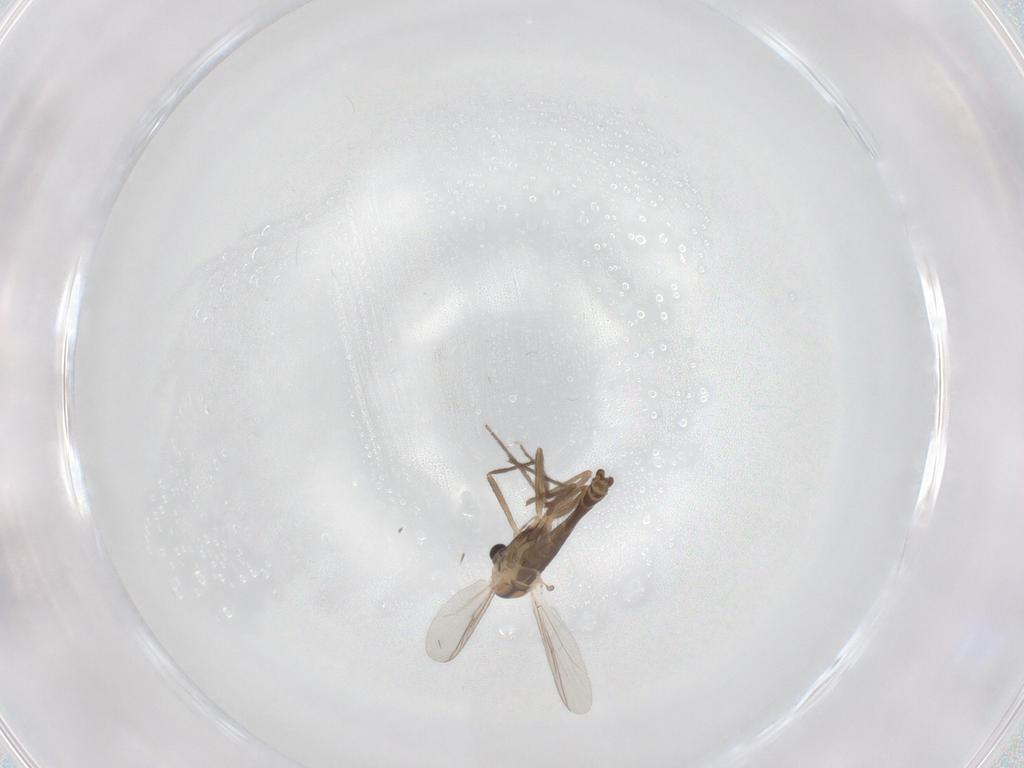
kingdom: Animalia
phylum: Arthropoda
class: Insecta
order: Diptera
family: Chironomidae
